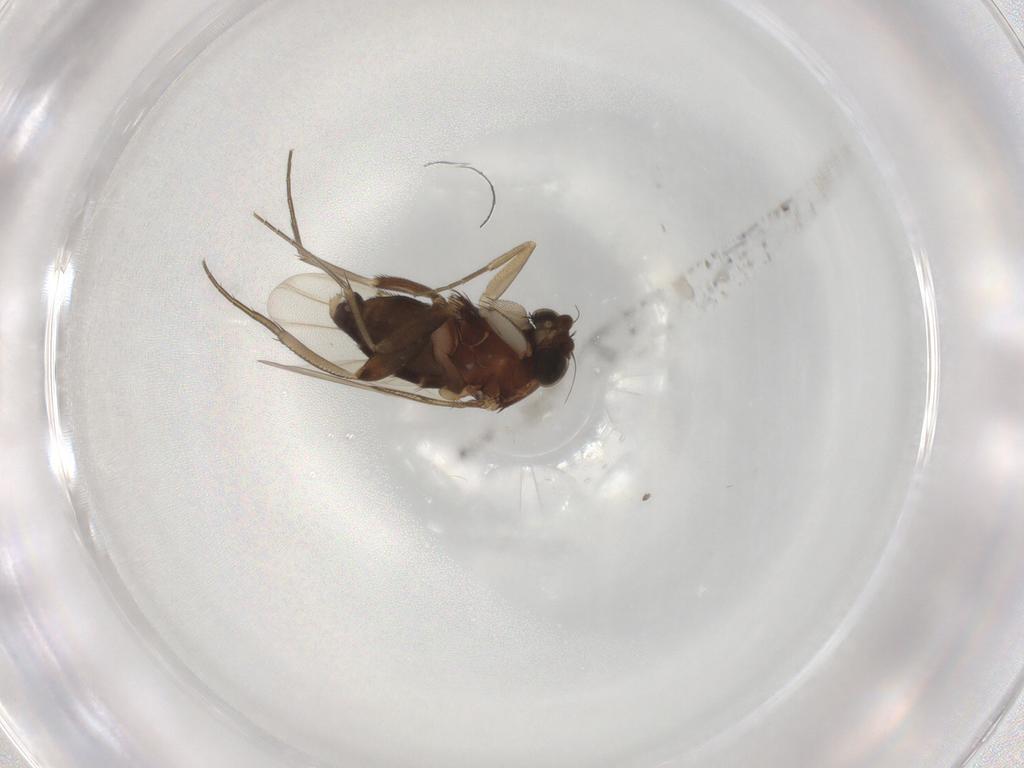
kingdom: Animalia
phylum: Arthropoda
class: Insecta
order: Diptera
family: Phoridae
